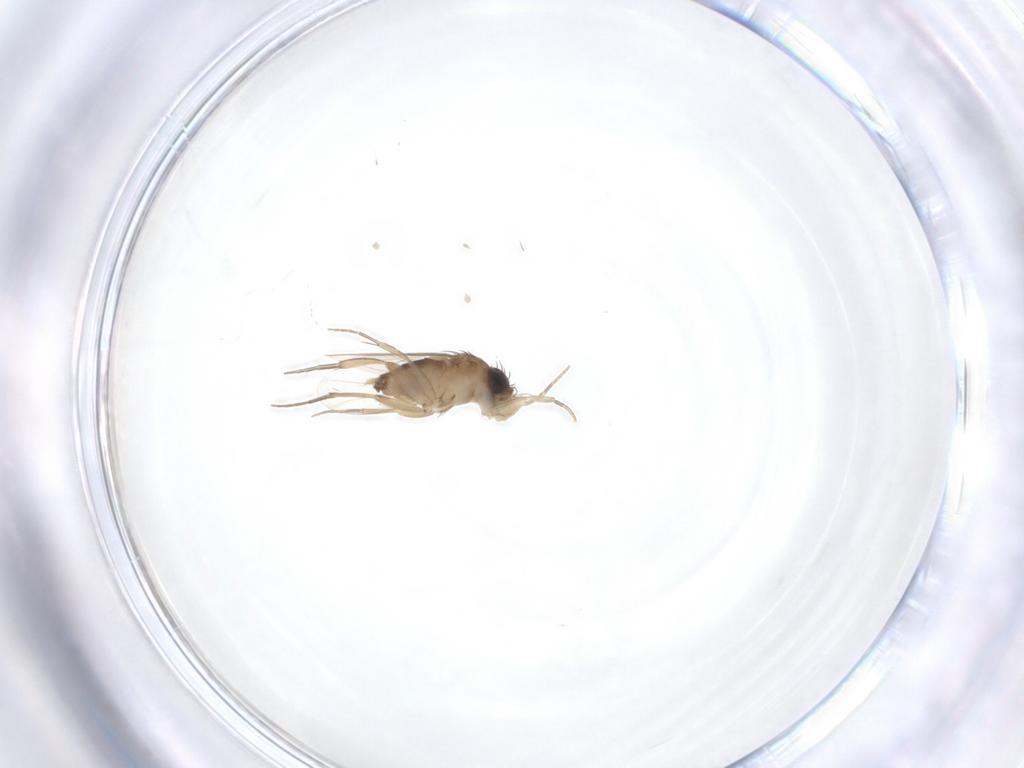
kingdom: Animalia
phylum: Arthropoda
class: Insecta
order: Diptera
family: Phoridae
